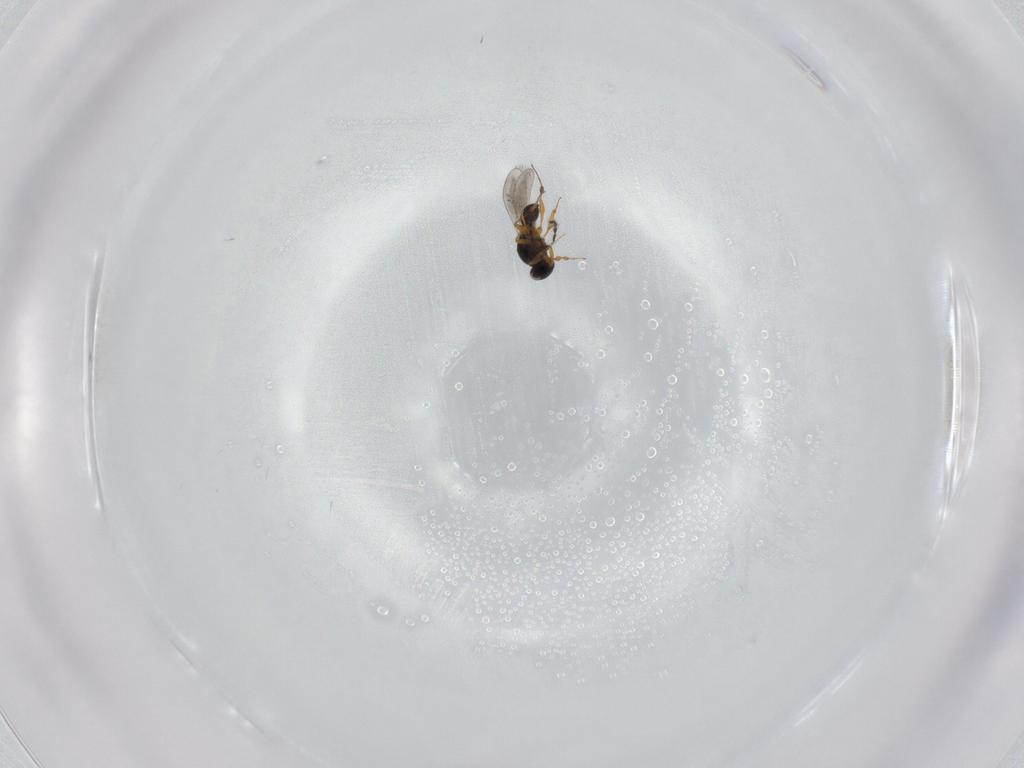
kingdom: Animalia
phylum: Arthropoda
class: Insecta
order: Hymenoptera
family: Platygastridae
